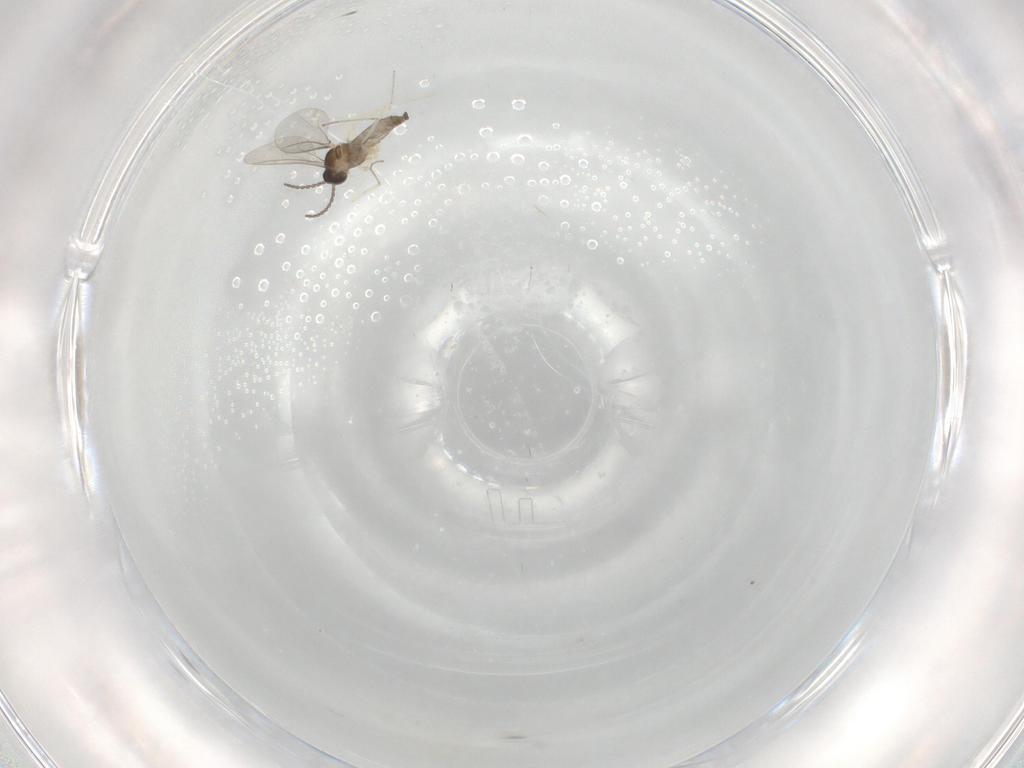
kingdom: Animalia
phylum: Arthropoda
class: Insecta
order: Diptera
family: Cecidomyiidae
